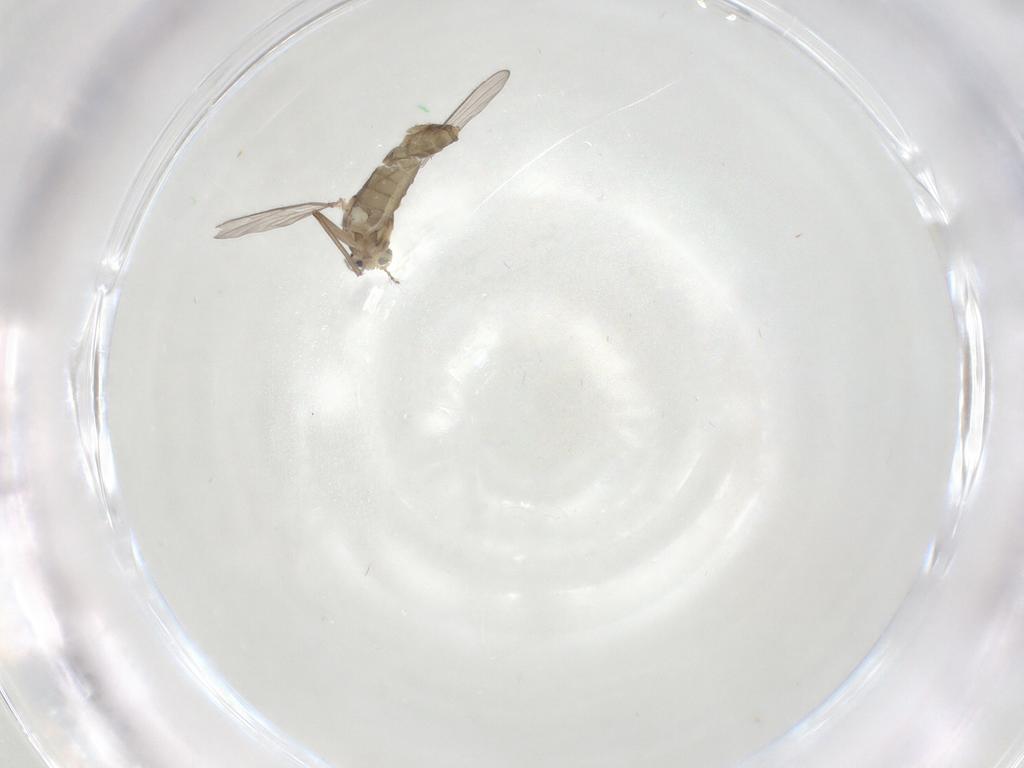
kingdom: Animalia
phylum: Arthropoda
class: Insecta
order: Diptera
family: Chironomidae
